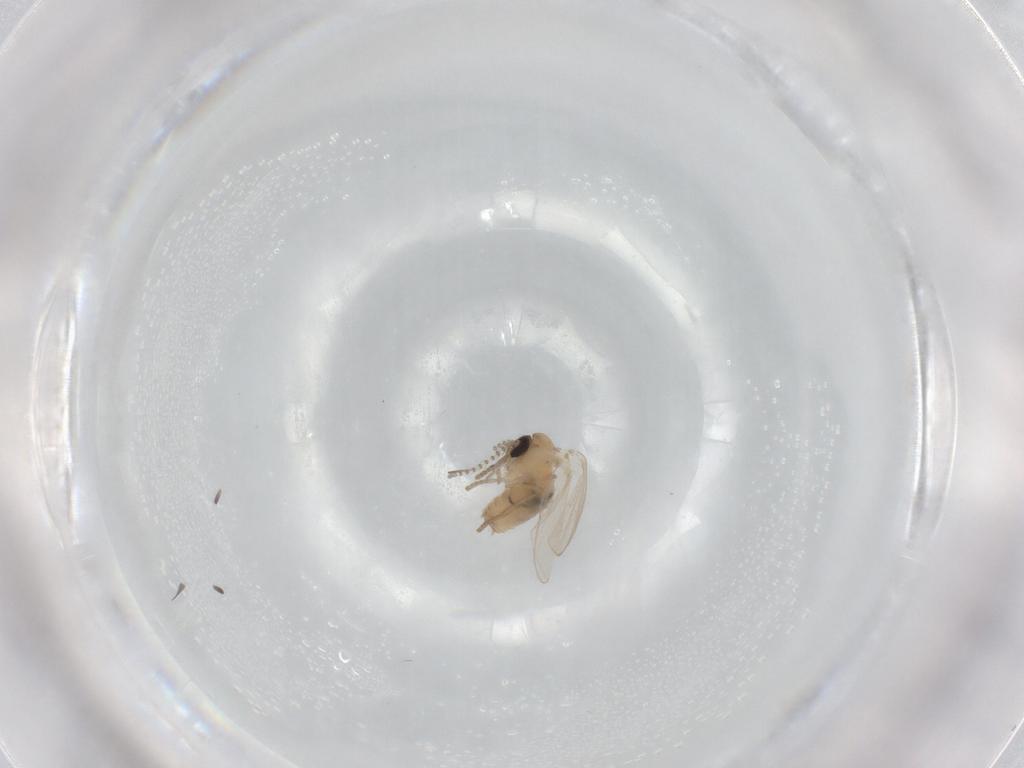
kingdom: Animalia
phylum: Arthropoda
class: Insecta
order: Diptera
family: Psychodidae
